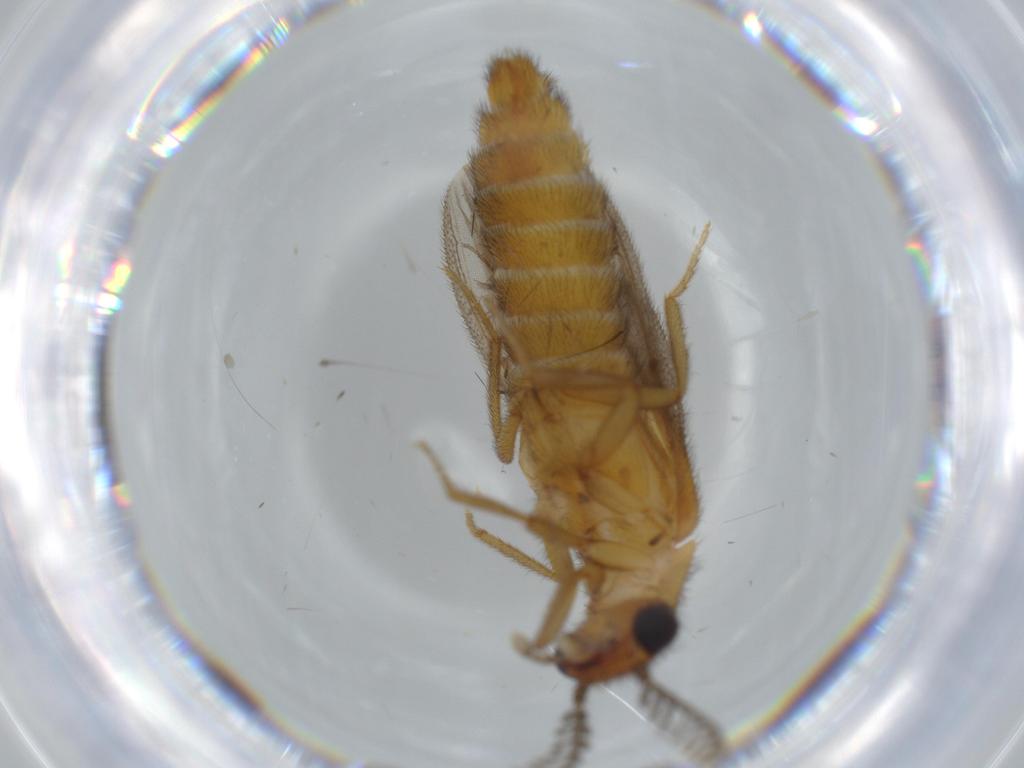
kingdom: Animalia
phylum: Arthropoda
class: Insecta
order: Coleoptera
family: Phengodidae
